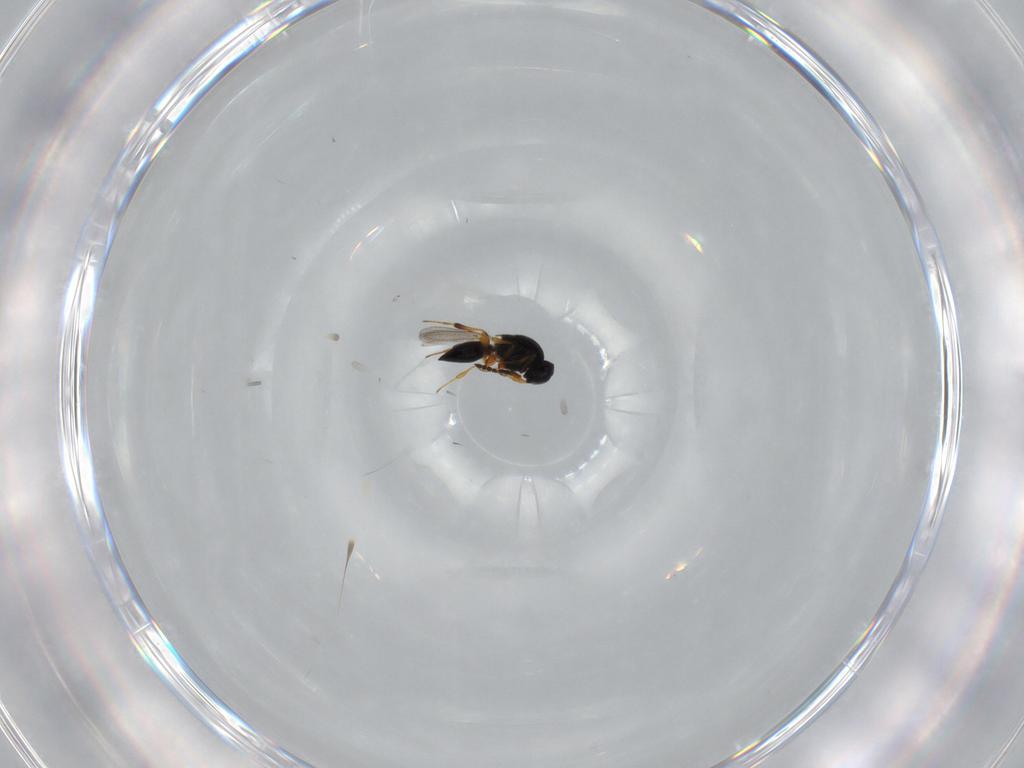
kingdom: Animalia
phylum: Arthropoda
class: Insecta
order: Hymenoptera
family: Platygastridae
